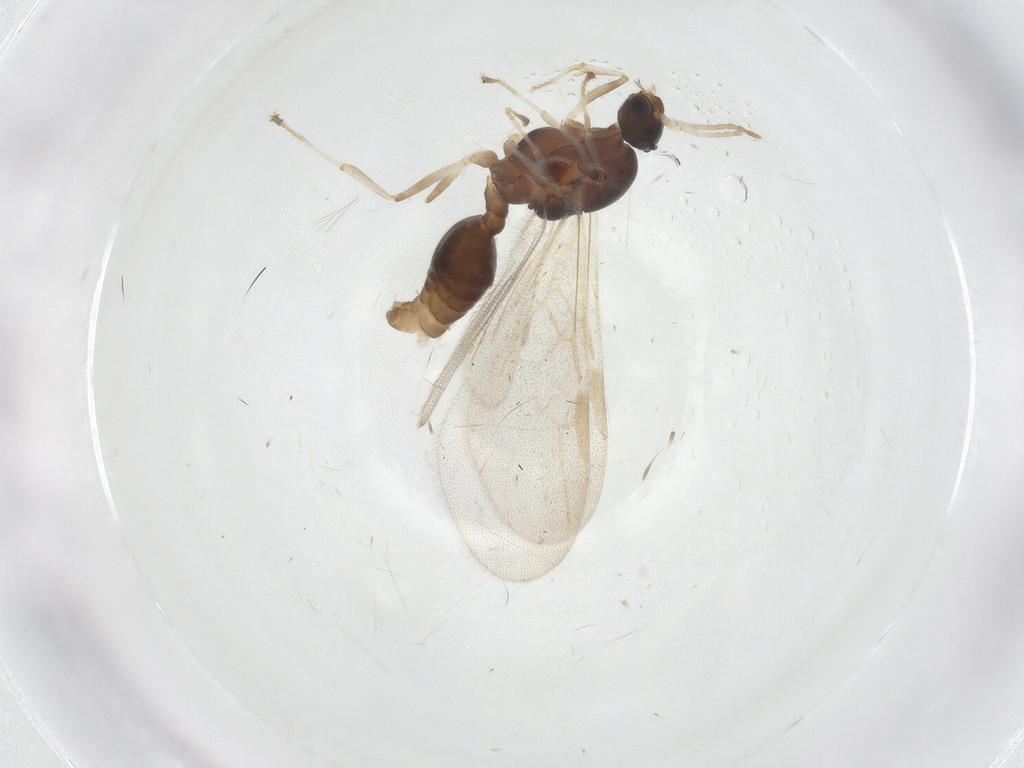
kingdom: Animalia
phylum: Arthropoda
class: Insecta
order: Hymenoptera
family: Formicidae
